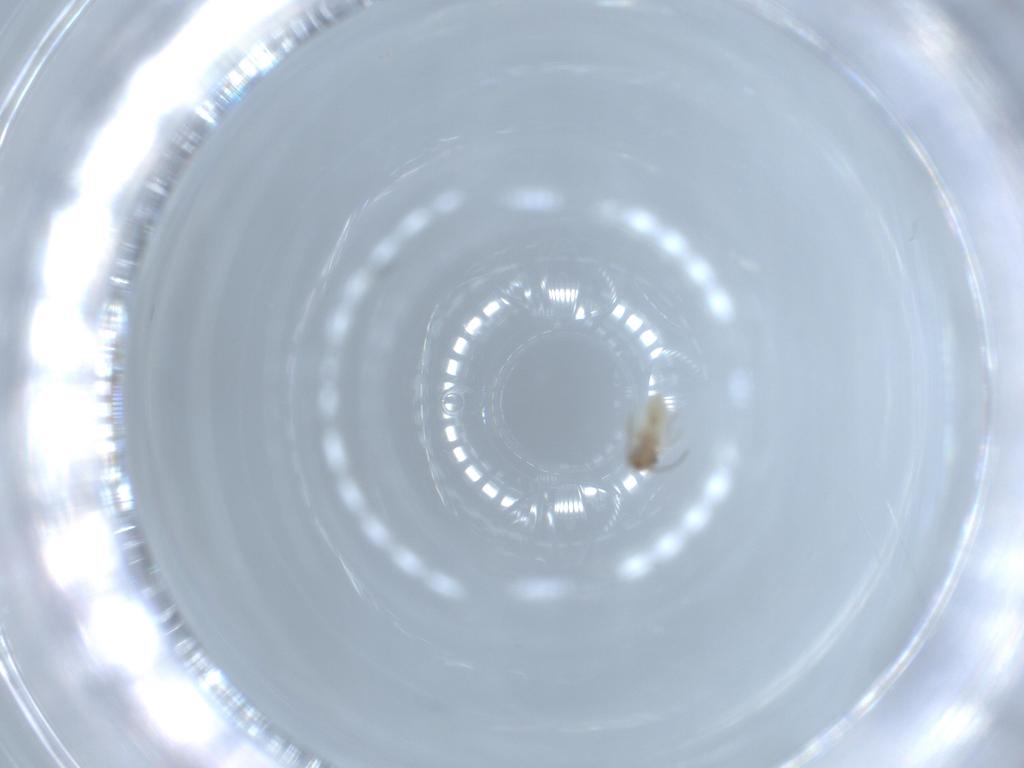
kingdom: Animalia
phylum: Arthropoda
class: Insecta
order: Psocodea
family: Lepidopsocidae
